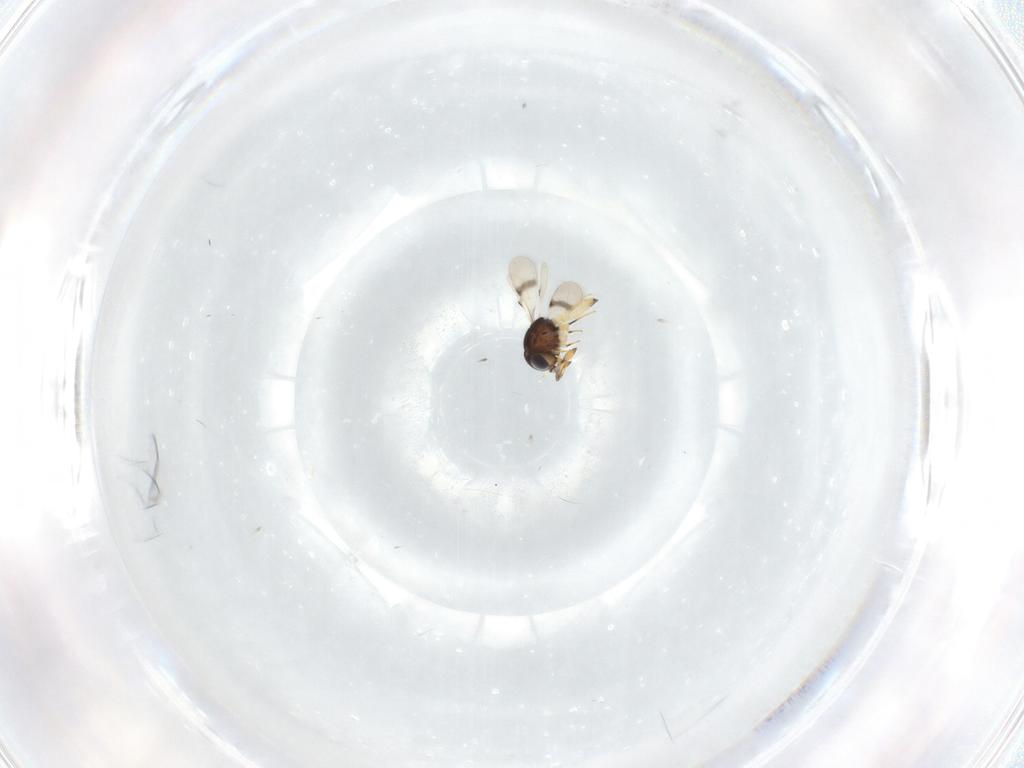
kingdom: Animalia
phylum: Arthropoda
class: Insecta
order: Hymenoptera
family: Scelionidae
